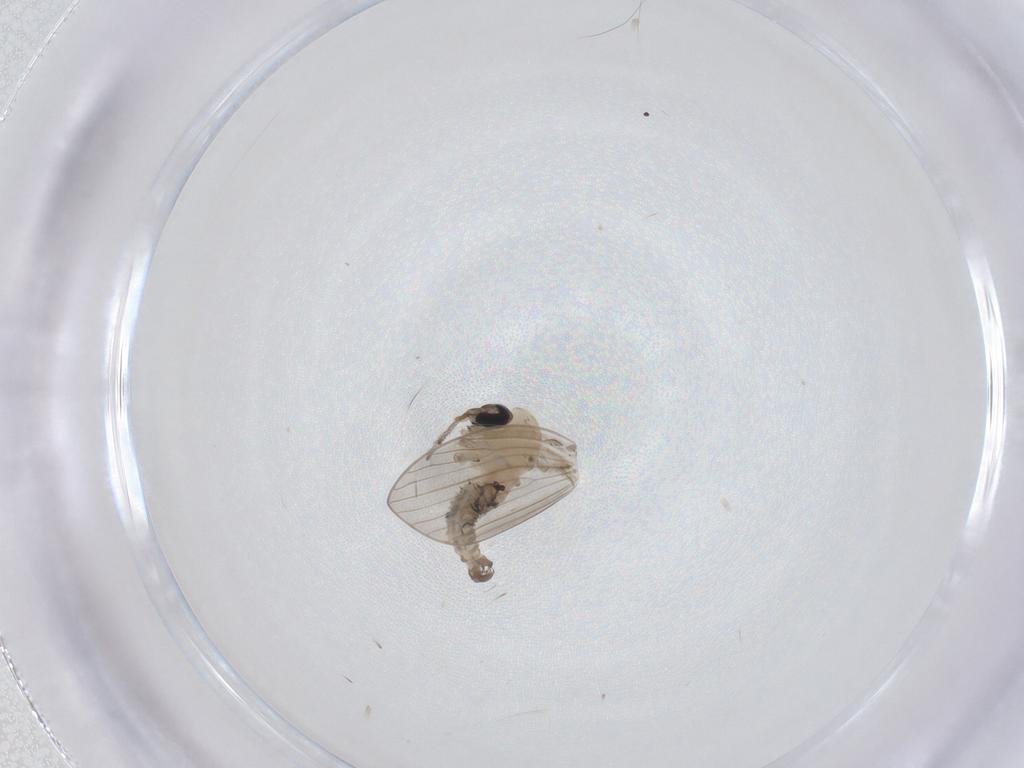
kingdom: Animalia
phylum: Arthropoda
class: Insecta
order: Diptera
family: Psychodidae
